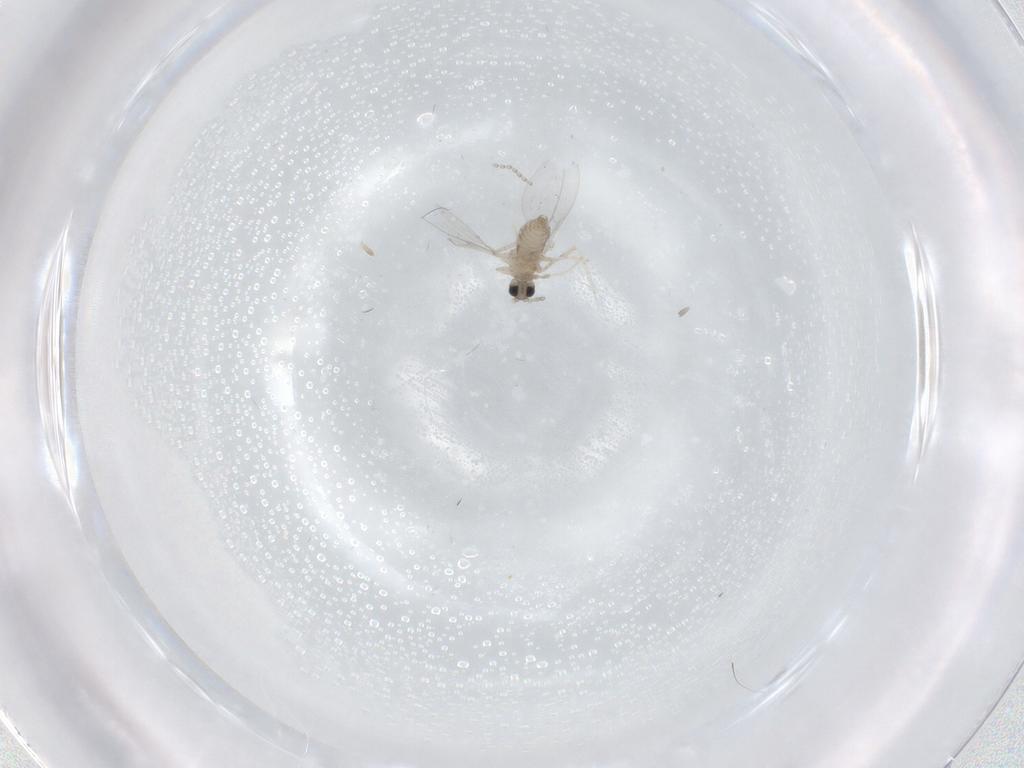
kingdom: Animalia
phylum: Arthropoda
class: Insecta
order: Diptera
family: Cecidomyiidae
